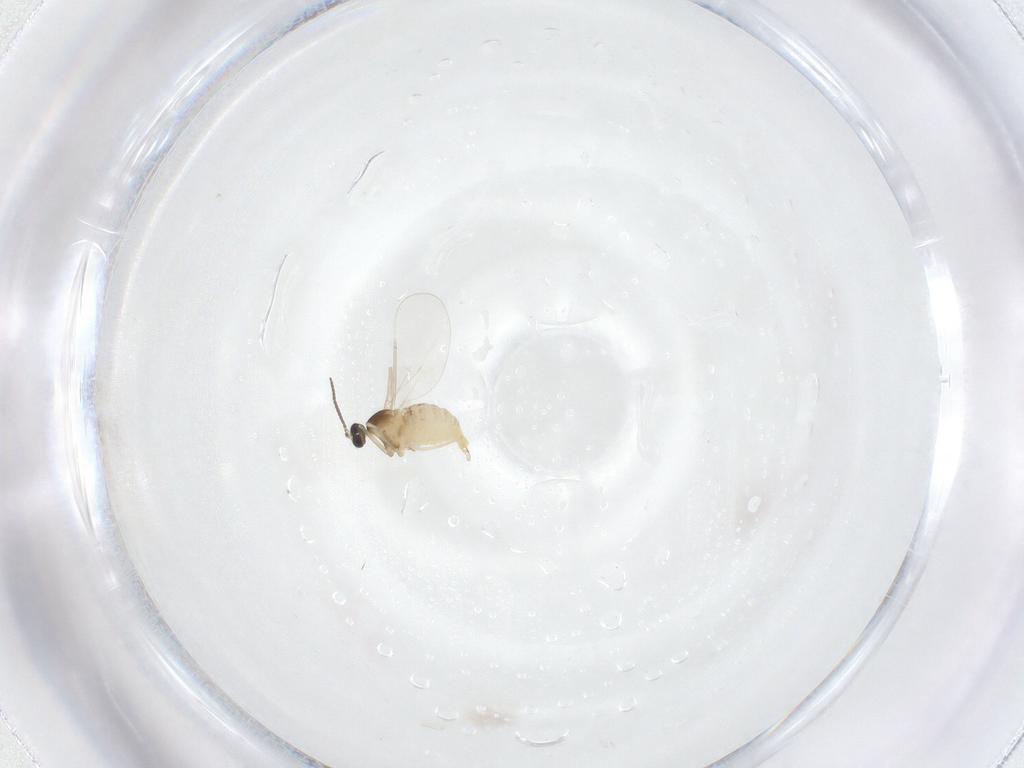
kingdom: Animalia
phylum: Arthropoda
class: Insecta
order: Diptera
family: Cecidomyiidae
